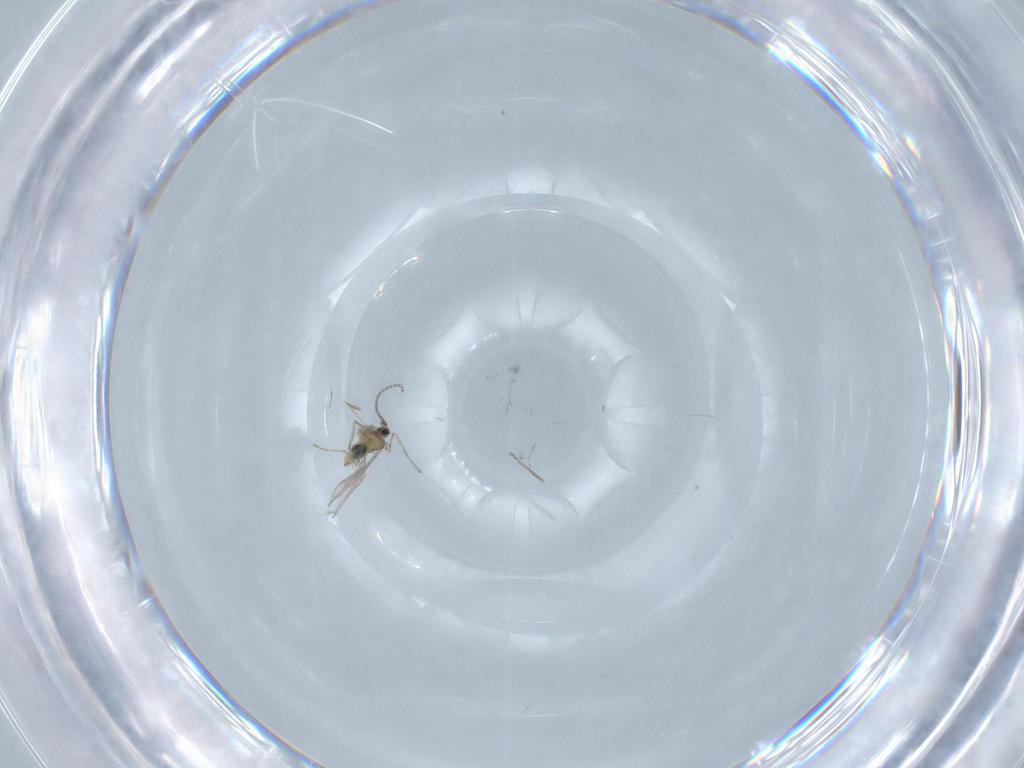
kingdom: Animalia
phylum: Arthropoda
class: Insecta
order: Diptera
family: Cecidomyiidae
